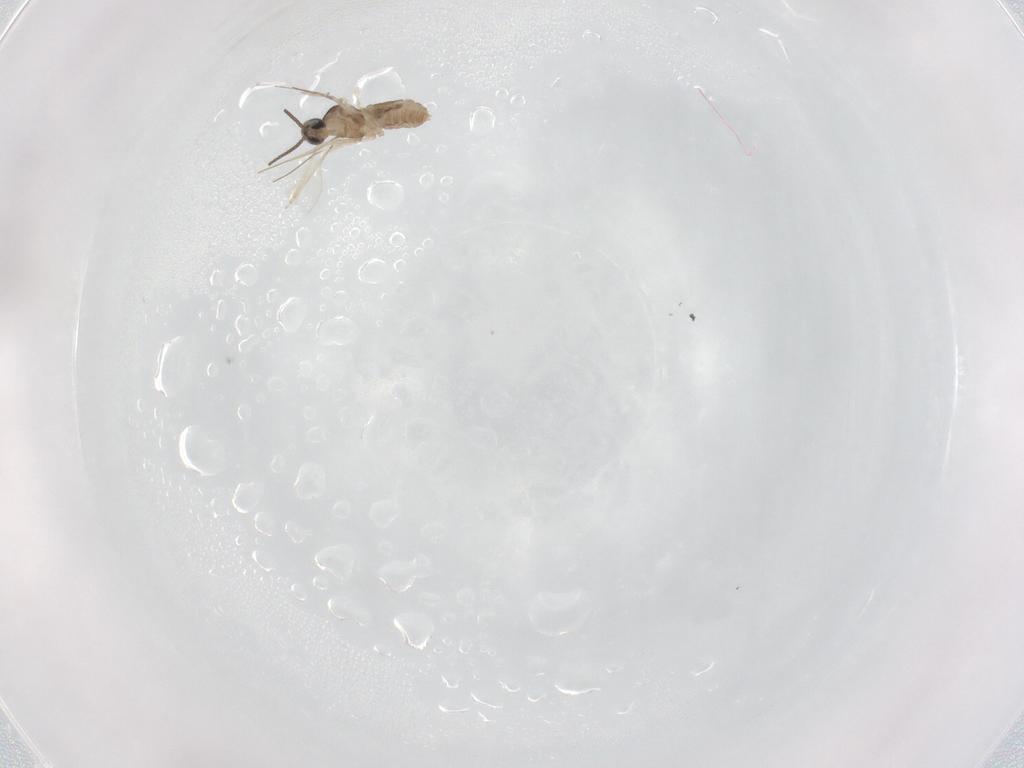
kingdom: Animalia
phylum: Arthropoda
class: Insecta
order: Diptera
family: Cecidomyiidae
